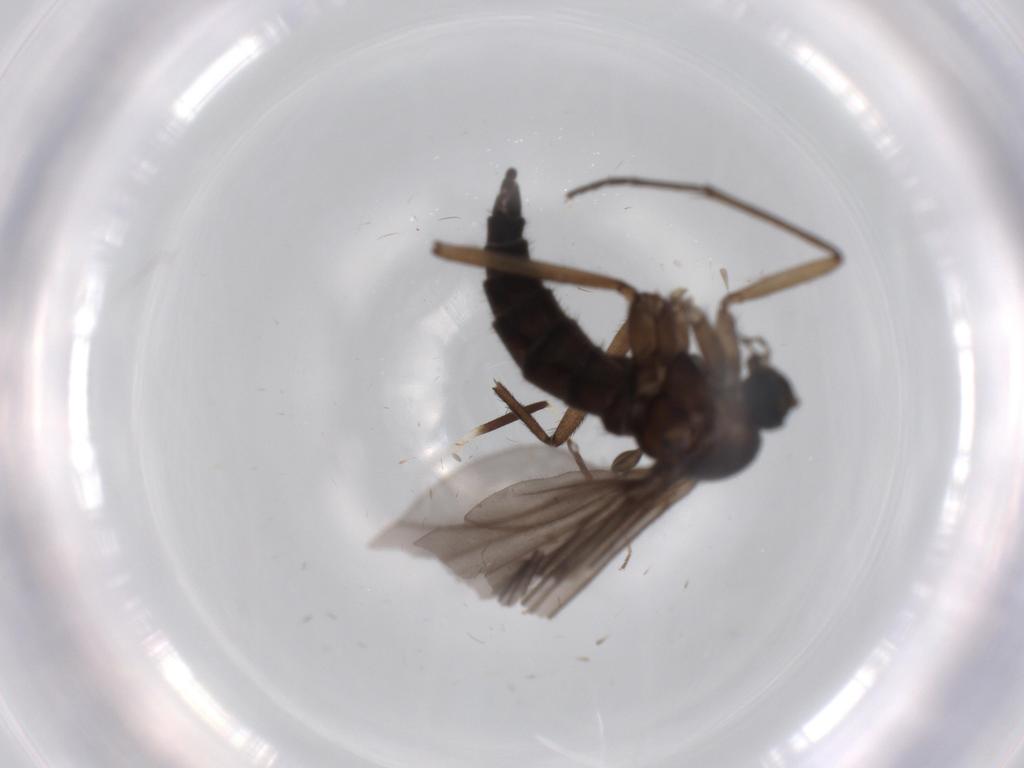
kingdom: Animalia
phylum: Arthropoda
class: Insecta
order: Diptera
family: Sciaridae
